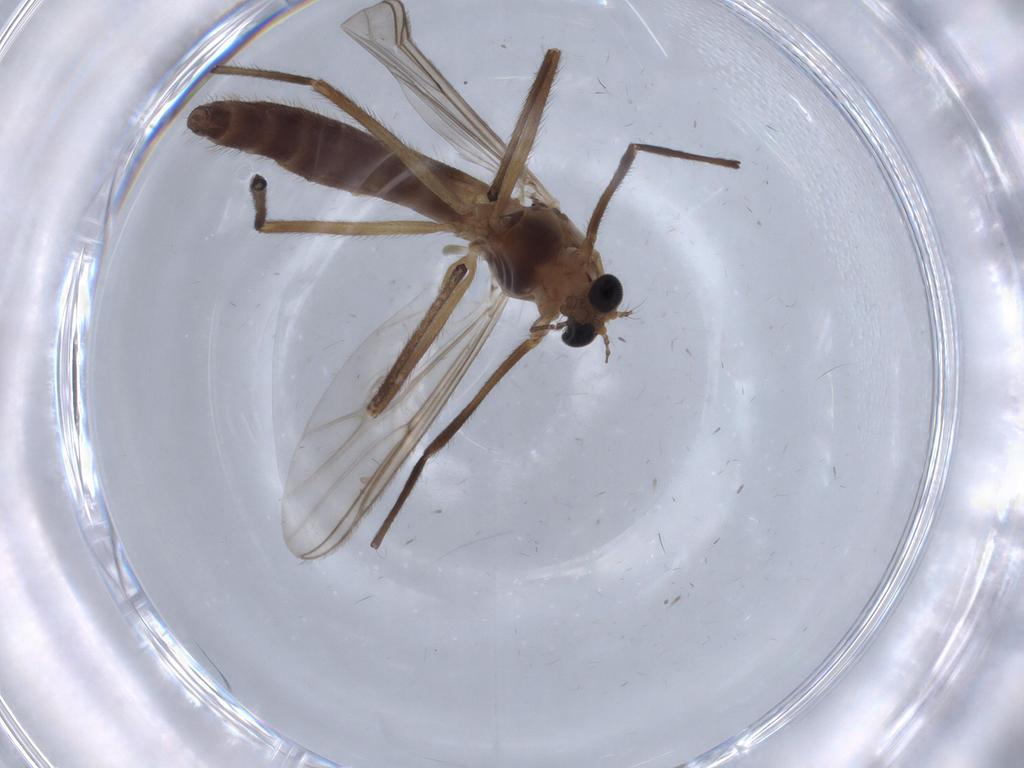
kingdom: Animalia
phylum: Arthropoda
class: Insecta
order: Diptera
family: Chironomidae
